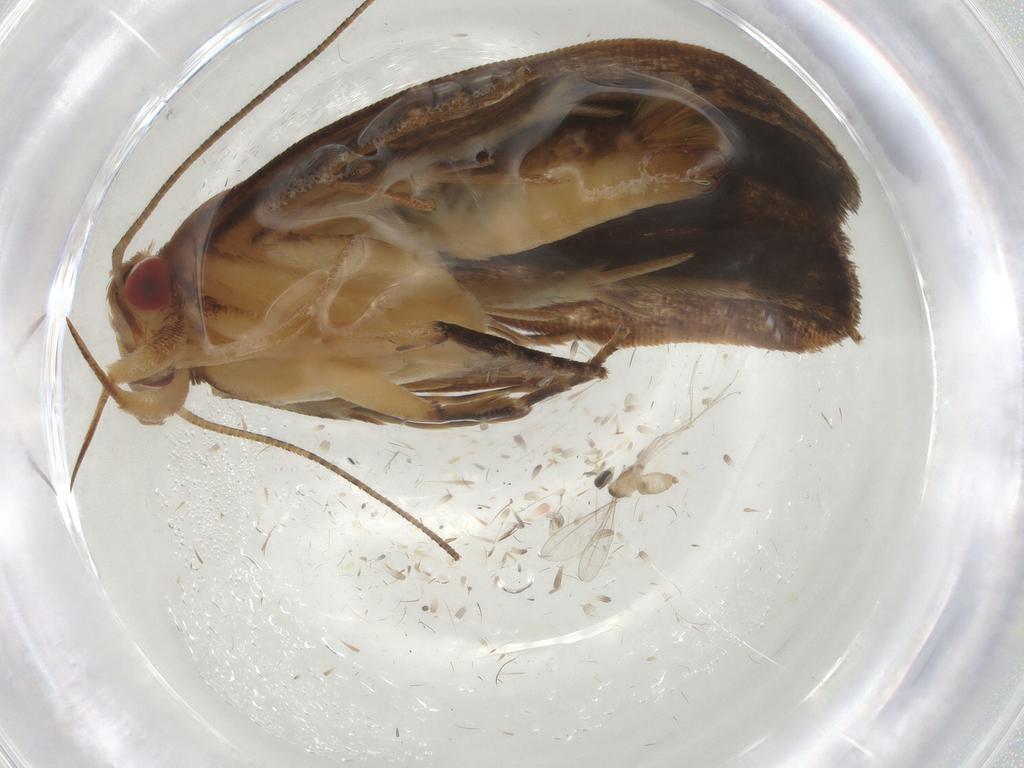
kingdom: Animalia
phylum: Arthropoda
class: Insecta
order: Diptera
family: Cecidomyiidae
